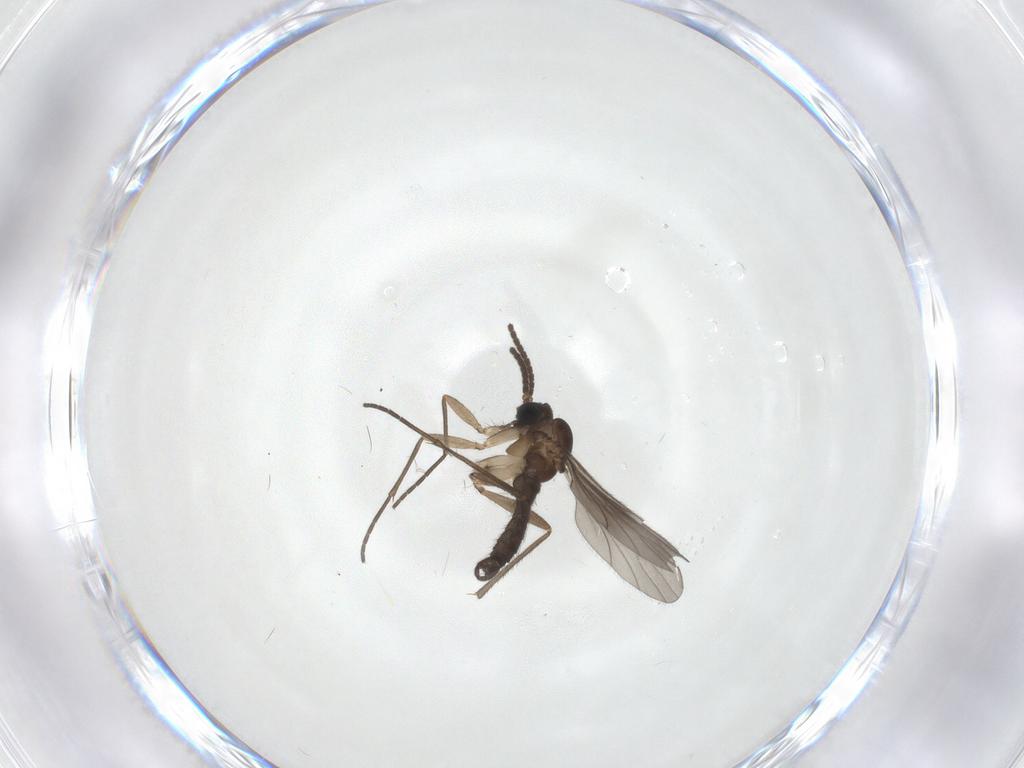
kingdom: Animalia
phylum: Arthropoda
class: Insecta
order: Diptera
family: Sciaridae
